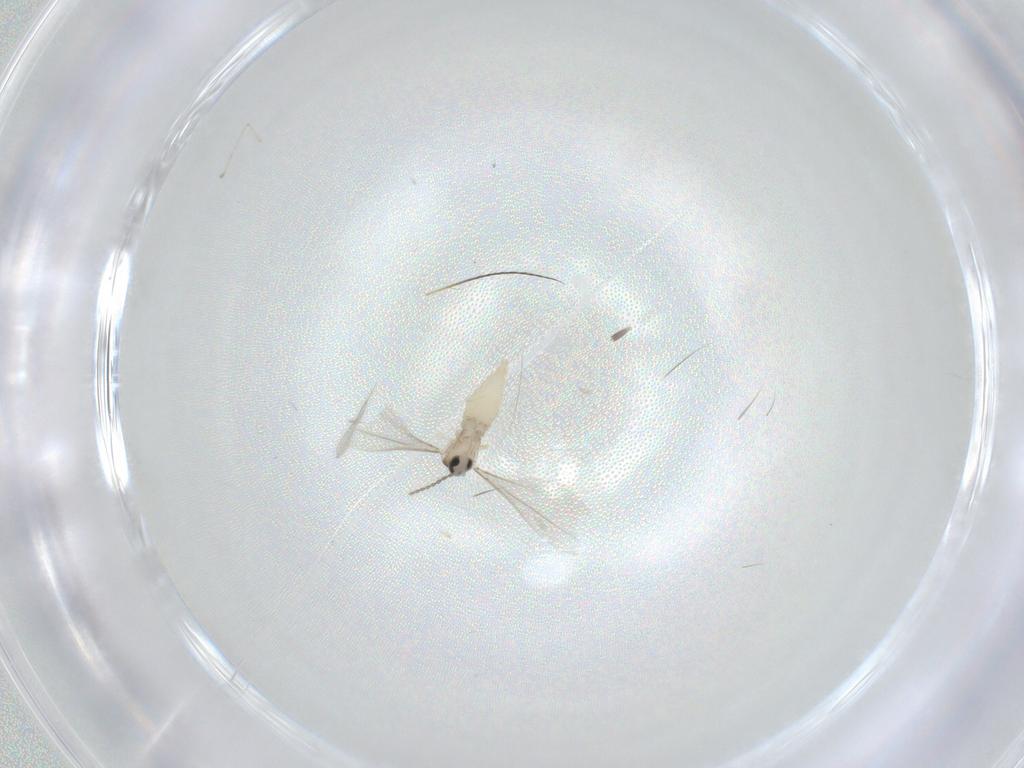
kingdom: Animalia
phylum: Arthropoda
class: Insecta
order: Diptera
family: Cecidomyiidae
